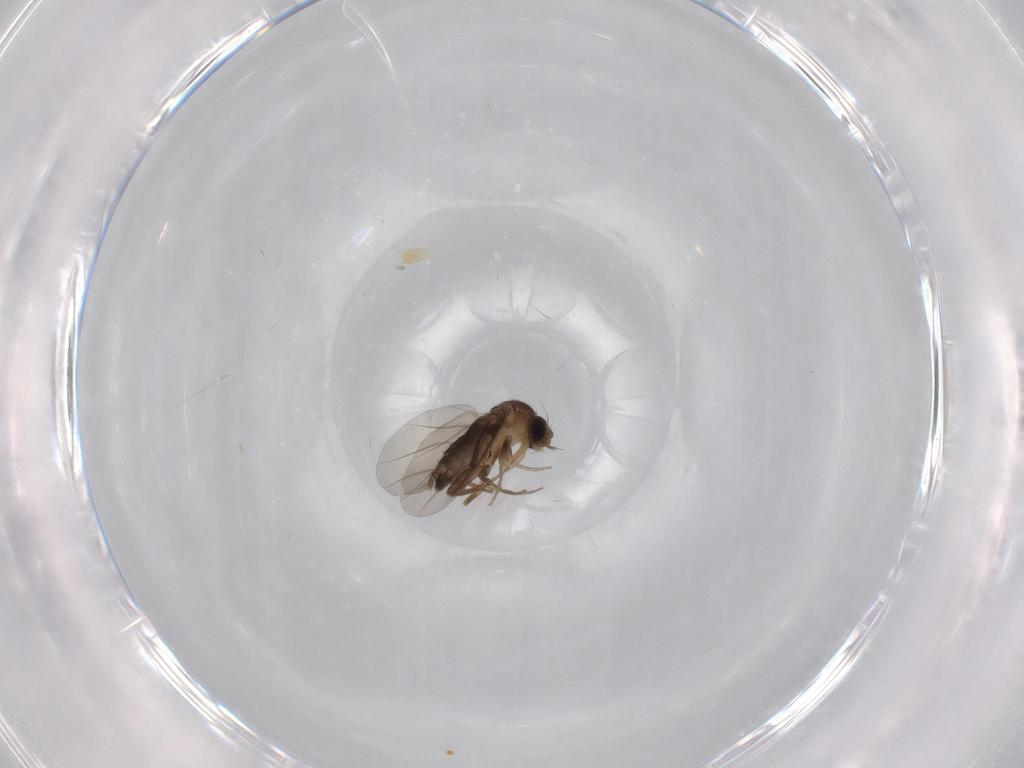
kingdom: Animalia
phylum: Arthropoda
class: Insecta
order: Diptera
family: Phoridae
